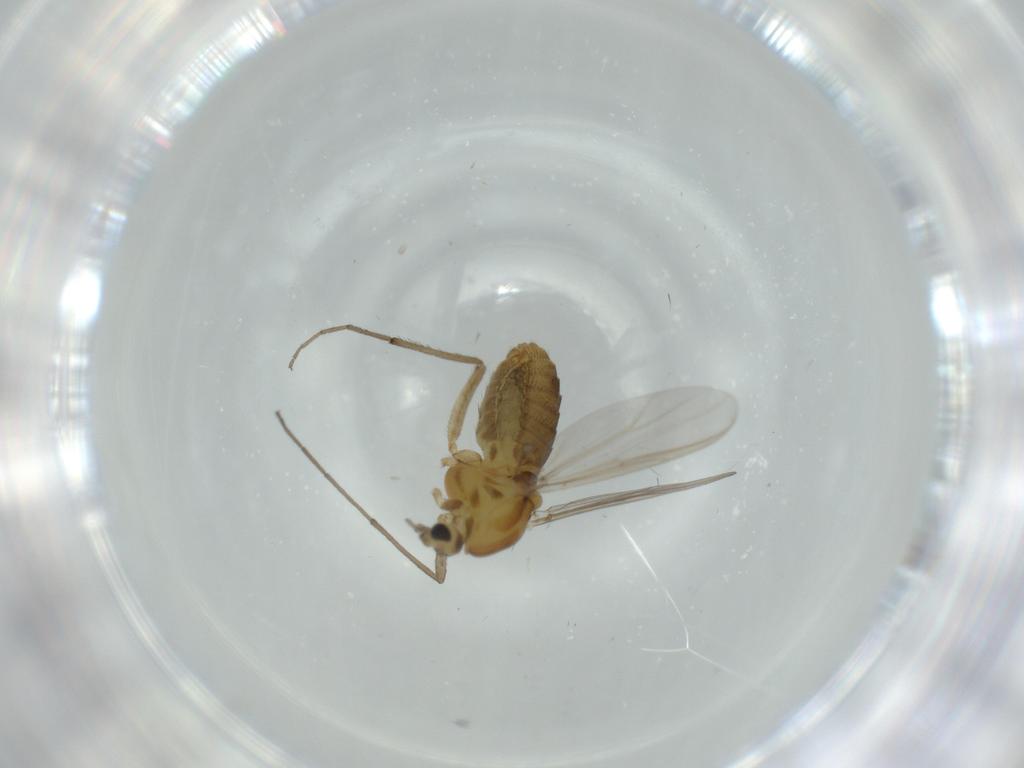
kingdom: Animalia
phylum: Arthropoda
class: Insecta
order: Diptera
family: Chironomidae
